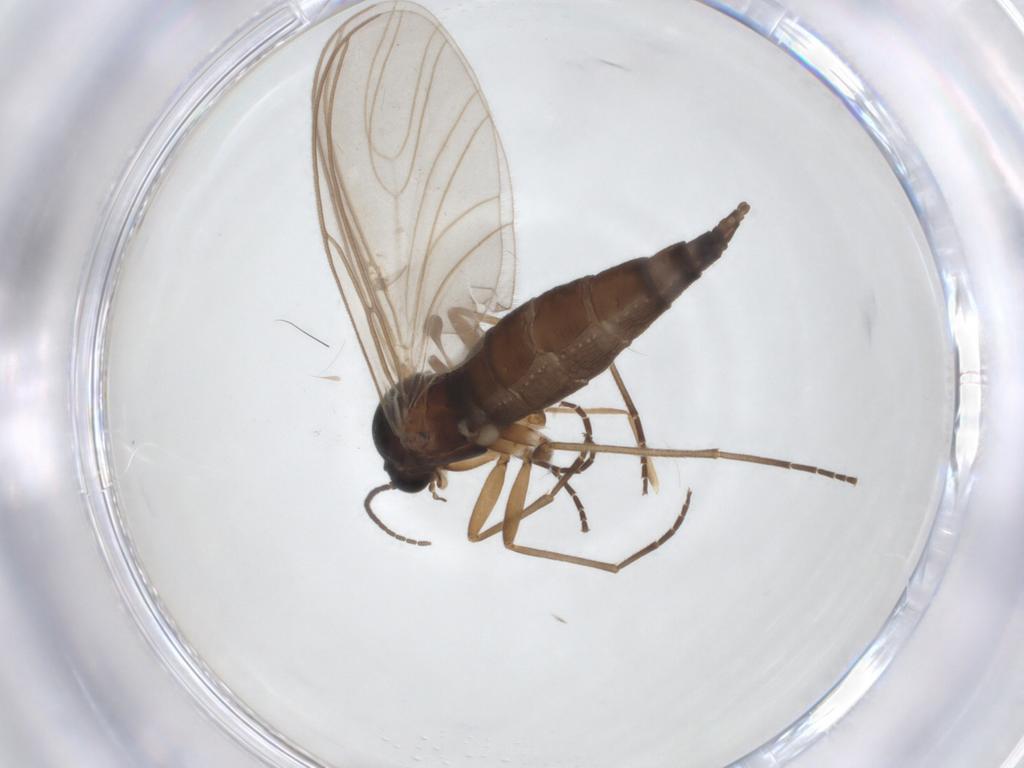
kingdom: Animalia
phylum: Arthropoda
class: Insecta
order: Diptera
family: Chironomidae
